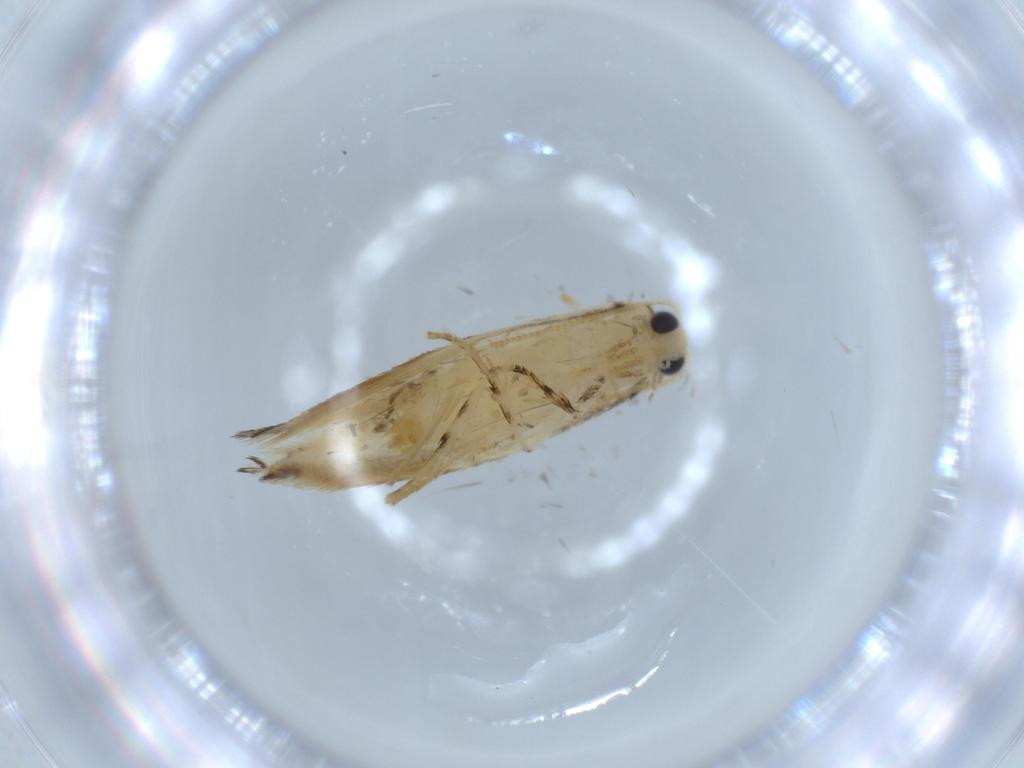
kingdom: Animalia
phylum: Arthropoda
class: Insecta
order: Lepidoptera
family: Tineidae
